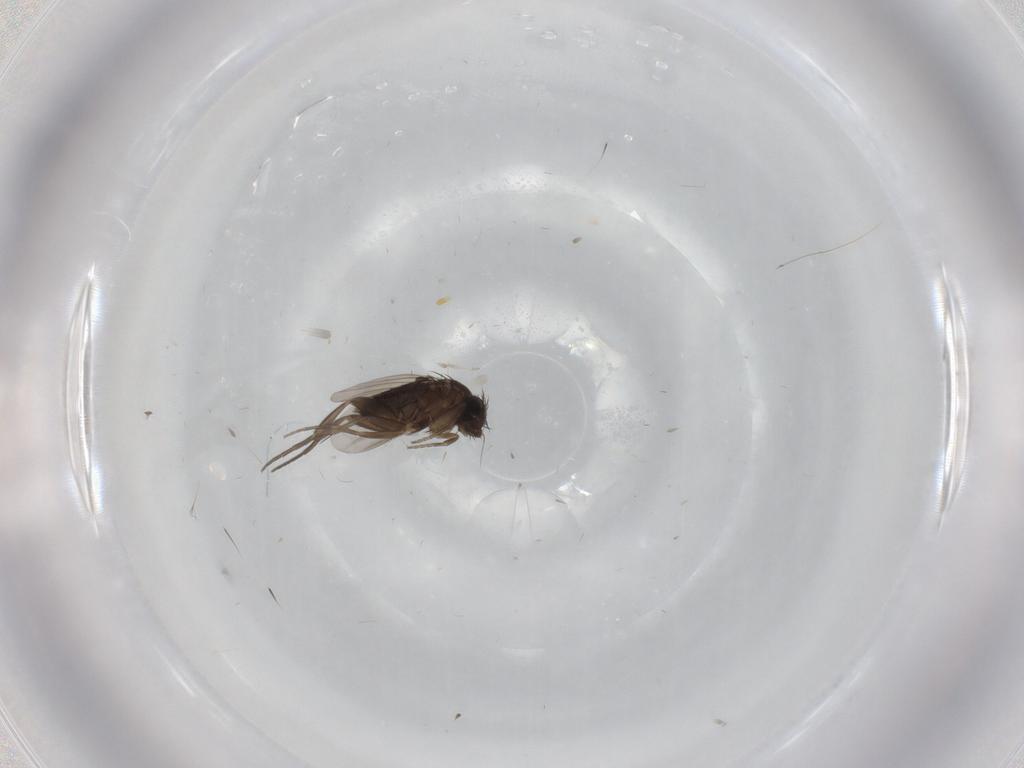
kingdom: Animalia
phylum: Arthropoda
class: Insecta
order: Diptera
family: Phoridae
